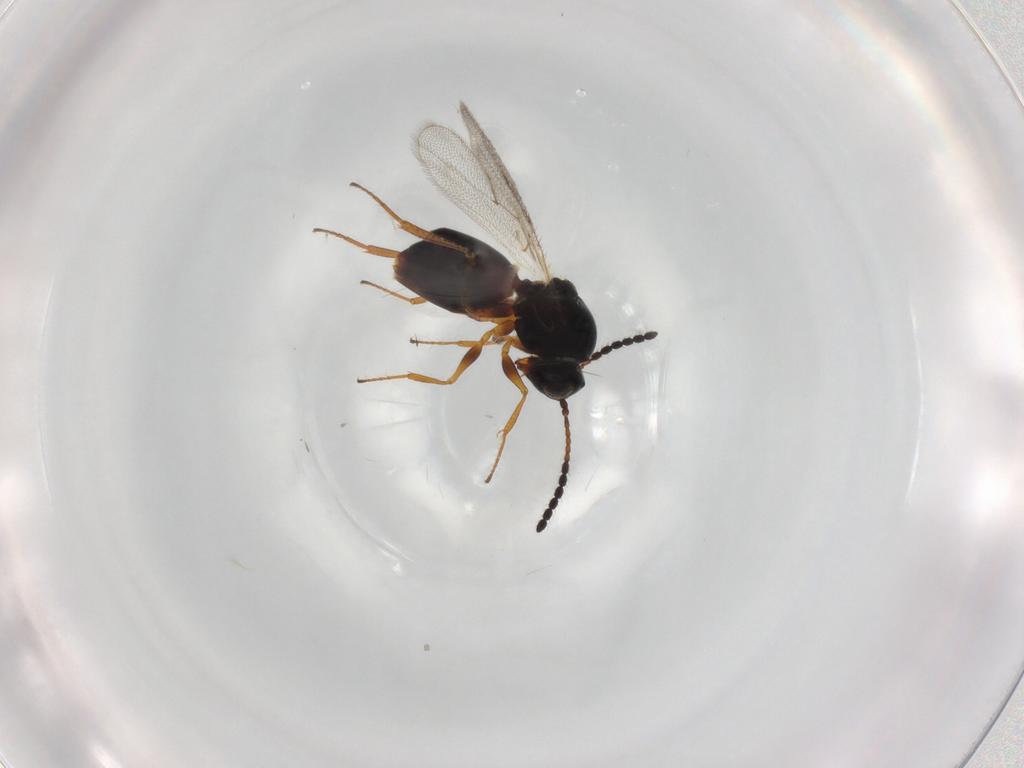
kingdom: Animalia
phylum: Arthropoda
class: Insecta
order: Hymenoptera
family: Figitidae
